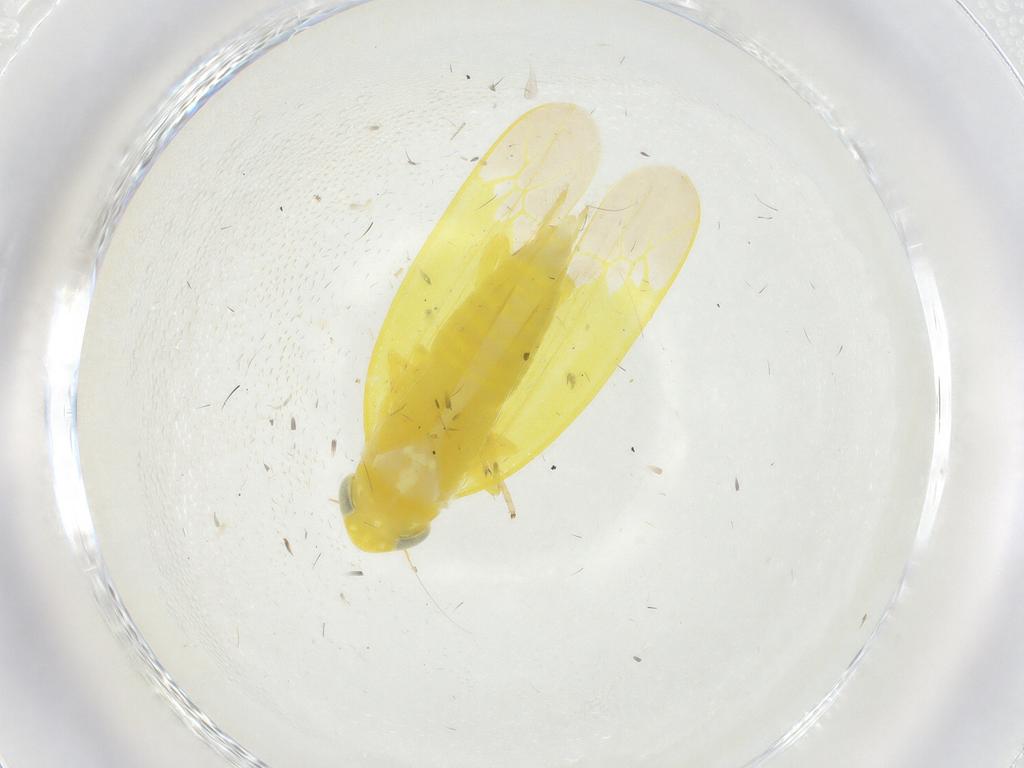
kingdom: Animalia
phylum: Arthropoda
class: Insecta
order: Hemiptera
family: Cicadellidae
